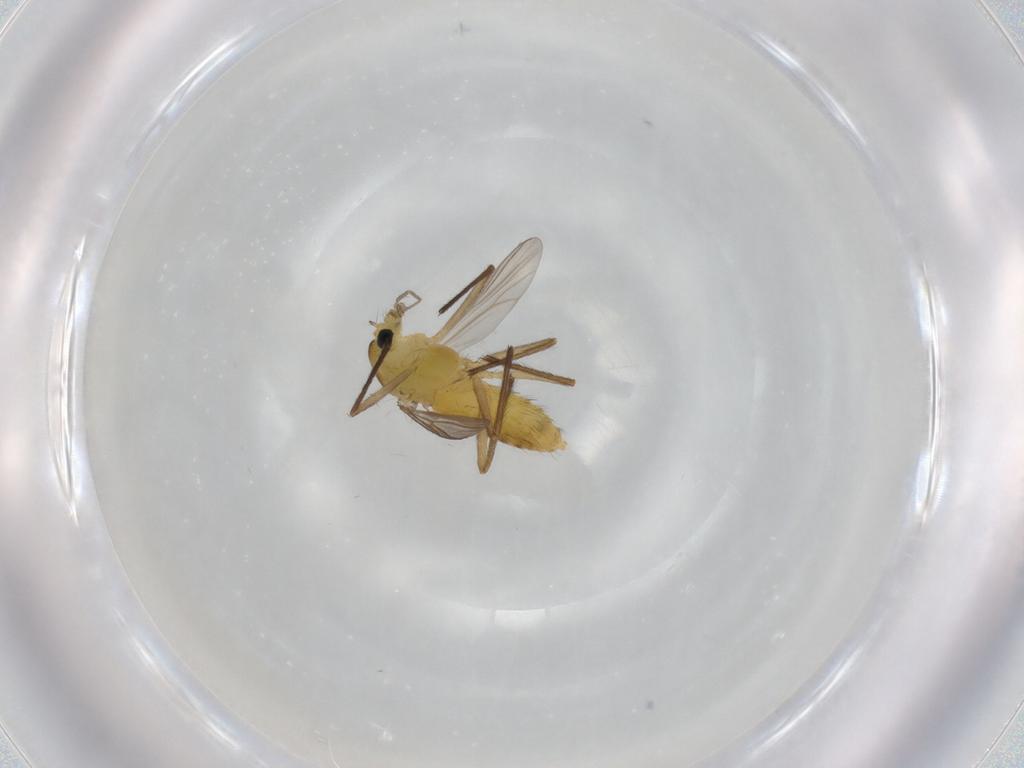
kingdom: Animalia
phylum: Arthropoda
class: Insecta
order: Diptera
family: Chironomidae
